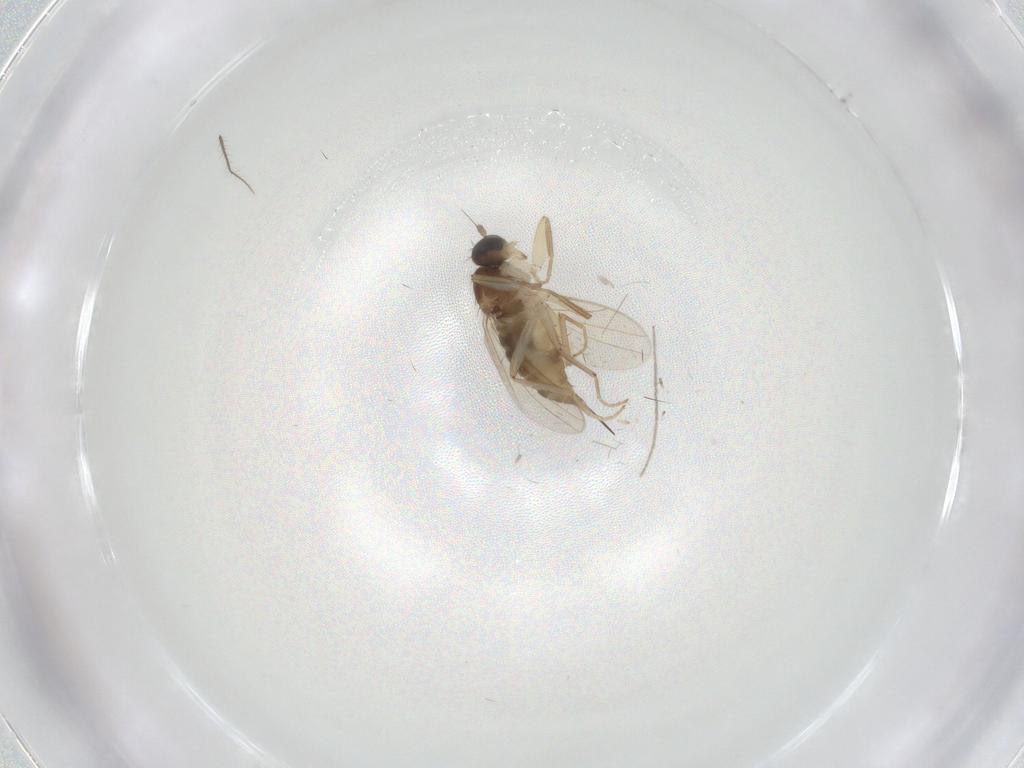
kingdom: Animalia
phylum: Arthropoda
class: Insecta
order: Diptera
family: Hybotidae
